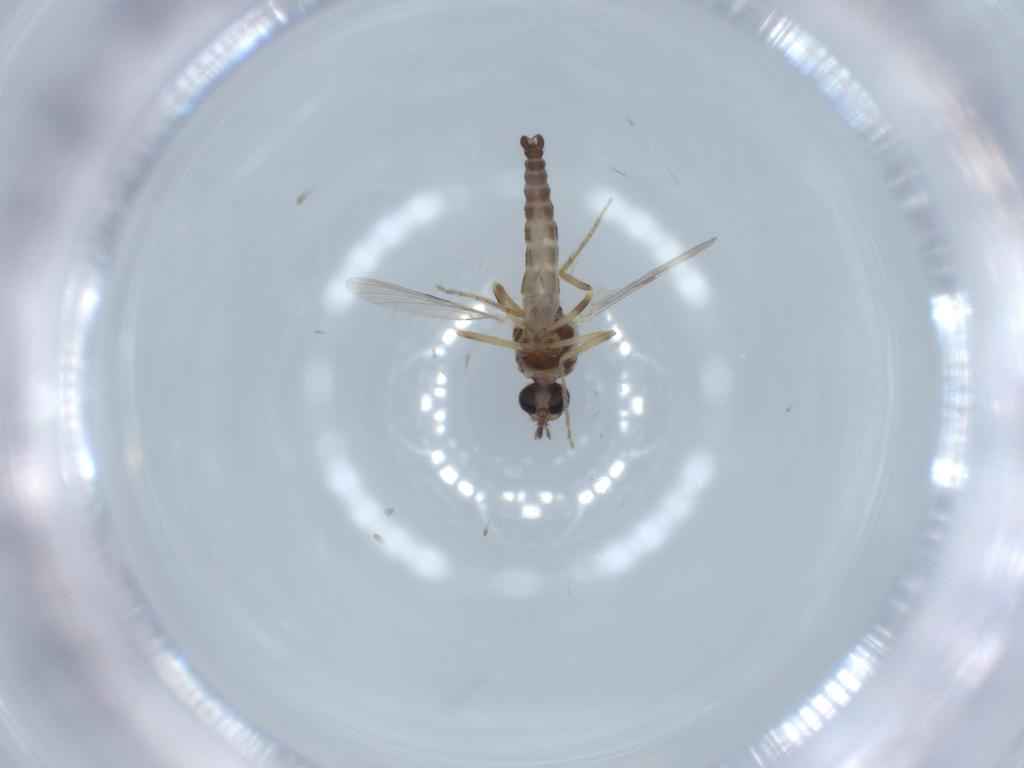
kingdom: Animalia
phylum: Arthropoda
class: Insecta
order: Diptera
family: Ceratopogonidae
